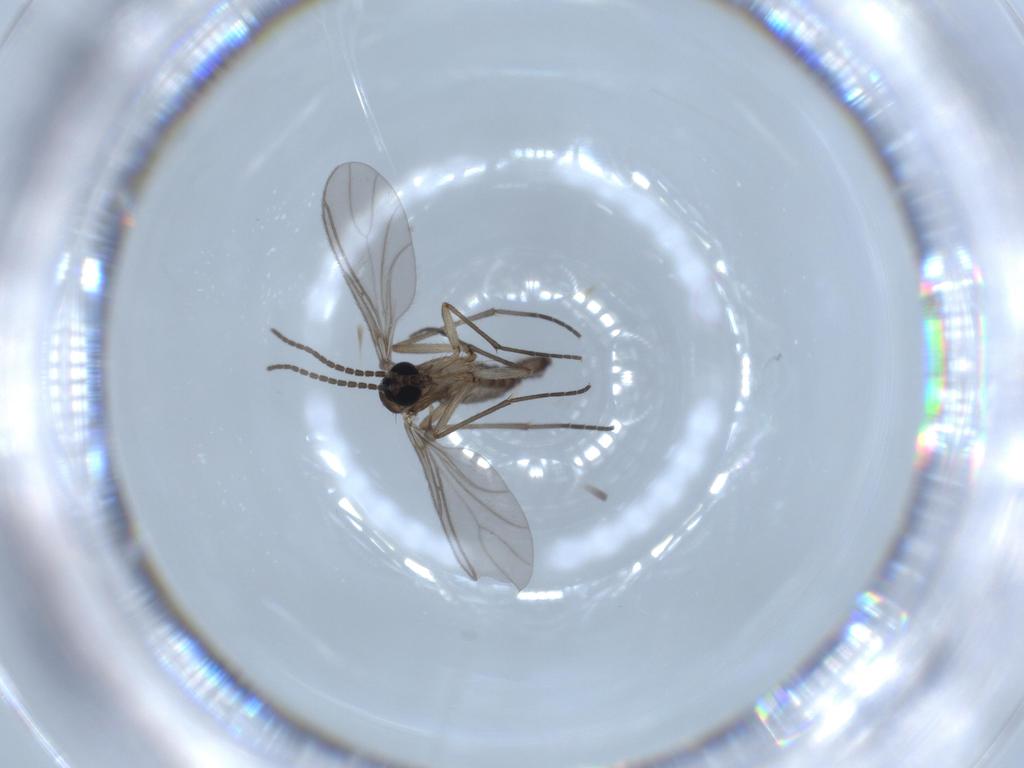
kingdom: Animalia
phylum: Arthropoda
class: Insecta
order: Diptera
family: Sciaridae
